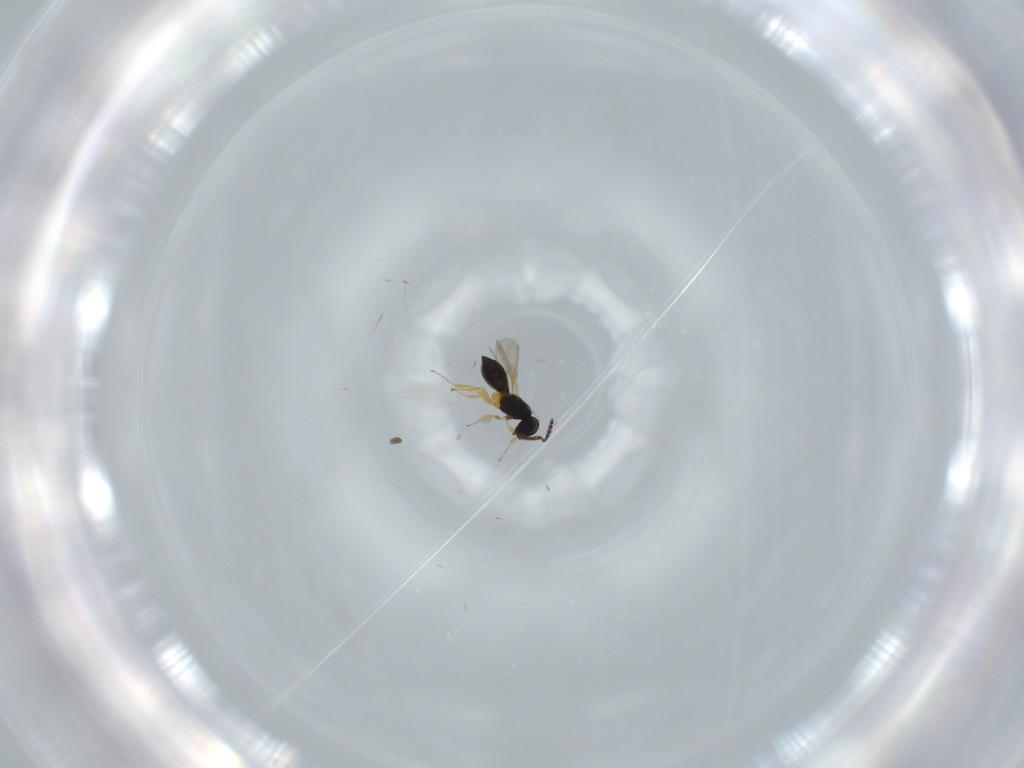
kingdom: Animalia
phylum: Arthropoda
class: Insecta
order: Hymenoptera
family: Scelionidae
